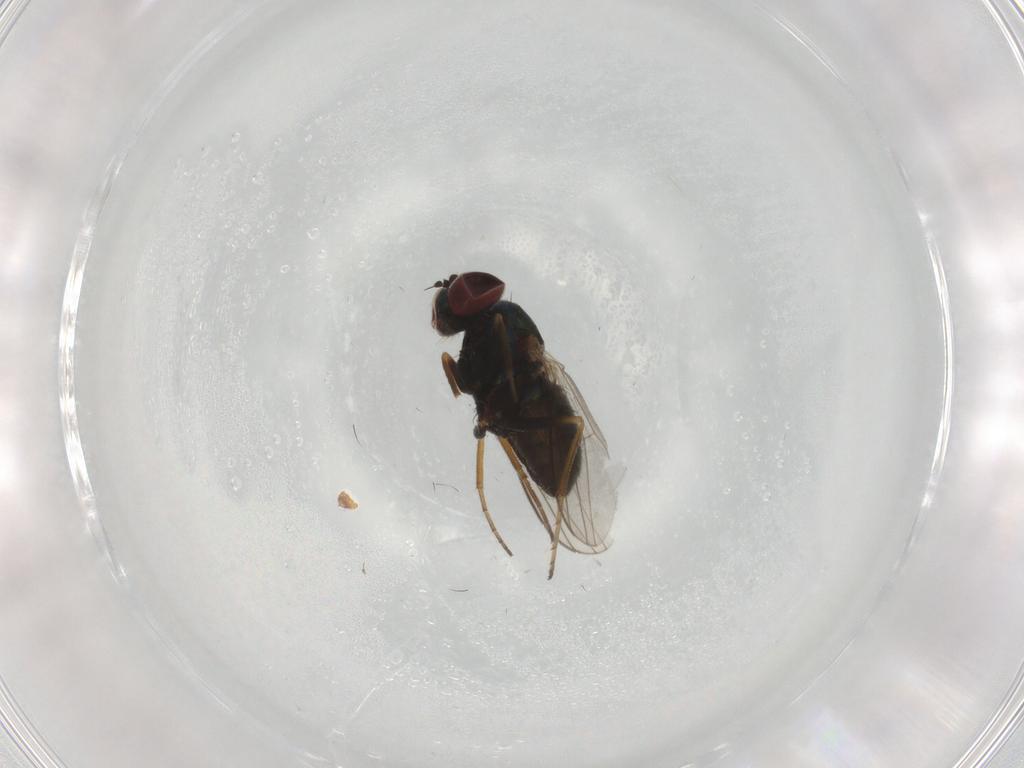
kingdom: Animalia
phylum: Arthropoda
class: Insecta
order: Diptera
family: Dolichopodidae
